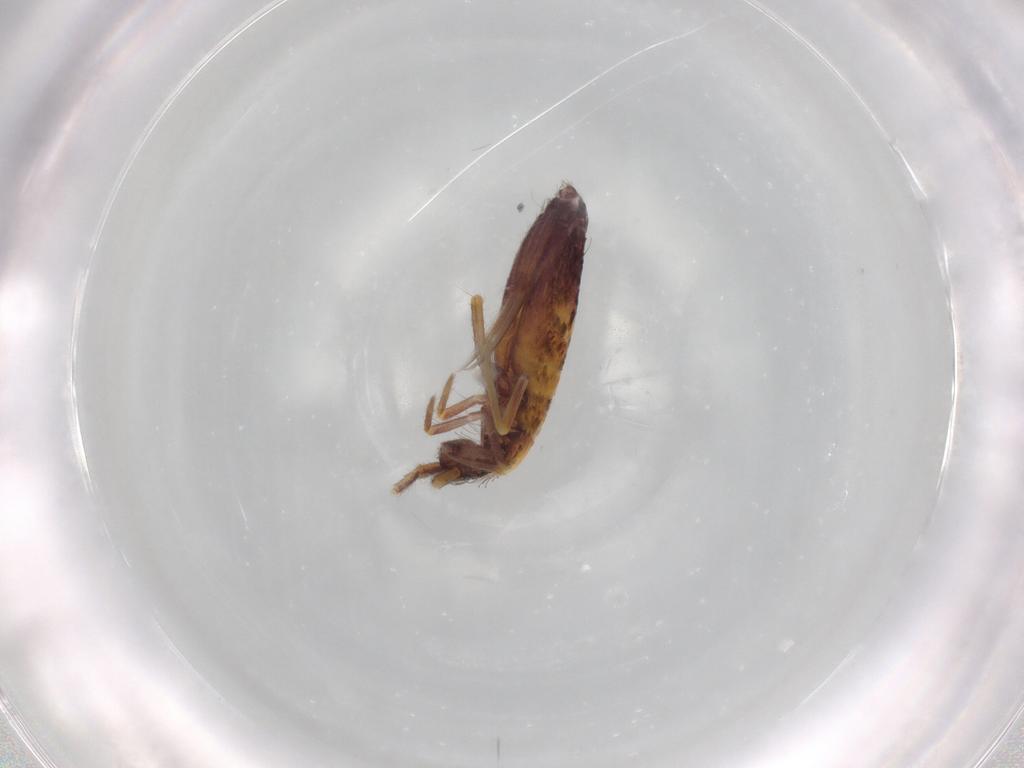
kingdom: Animalia
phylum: Arthropoda
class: Collembola
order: Entomobryomorpha
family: Entomobryidae
